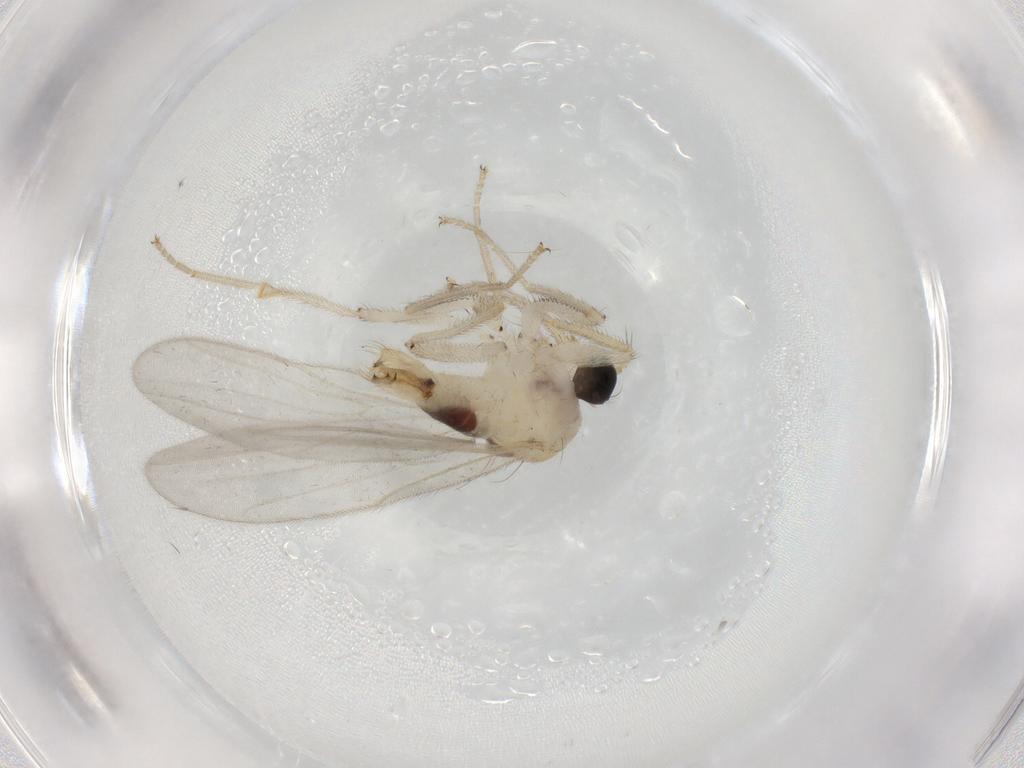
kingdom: Animalia
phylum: Arthropoda
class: Insecta
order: Diptera
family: Hybotidae
